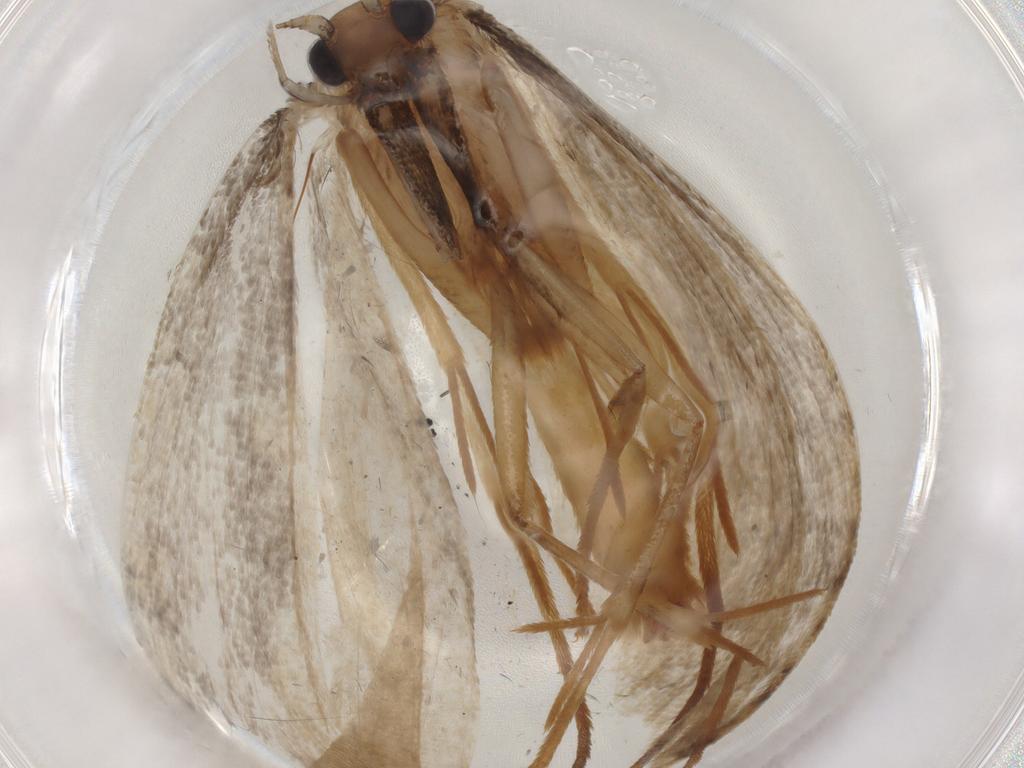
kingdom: Animalia
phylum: Arthropoda
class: Insecta
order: Lepidoptera
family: Tineidae
